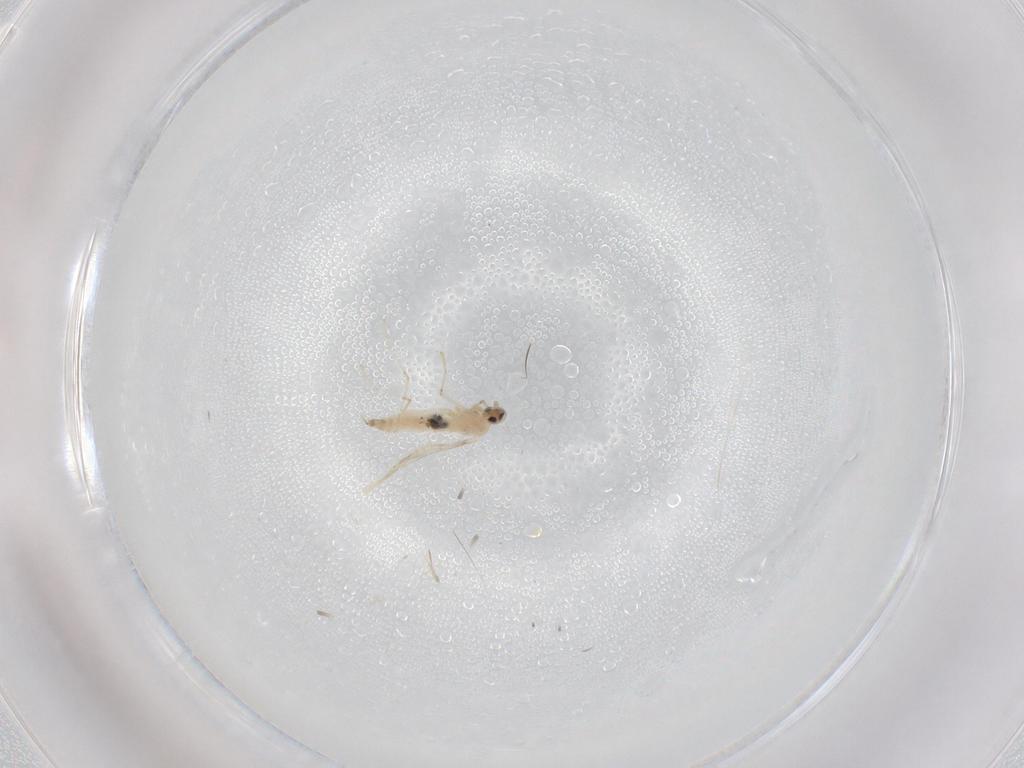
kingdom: Animalia
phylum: Arthropoda
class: Insecta
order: Diptera
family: Cecidomyiidae
